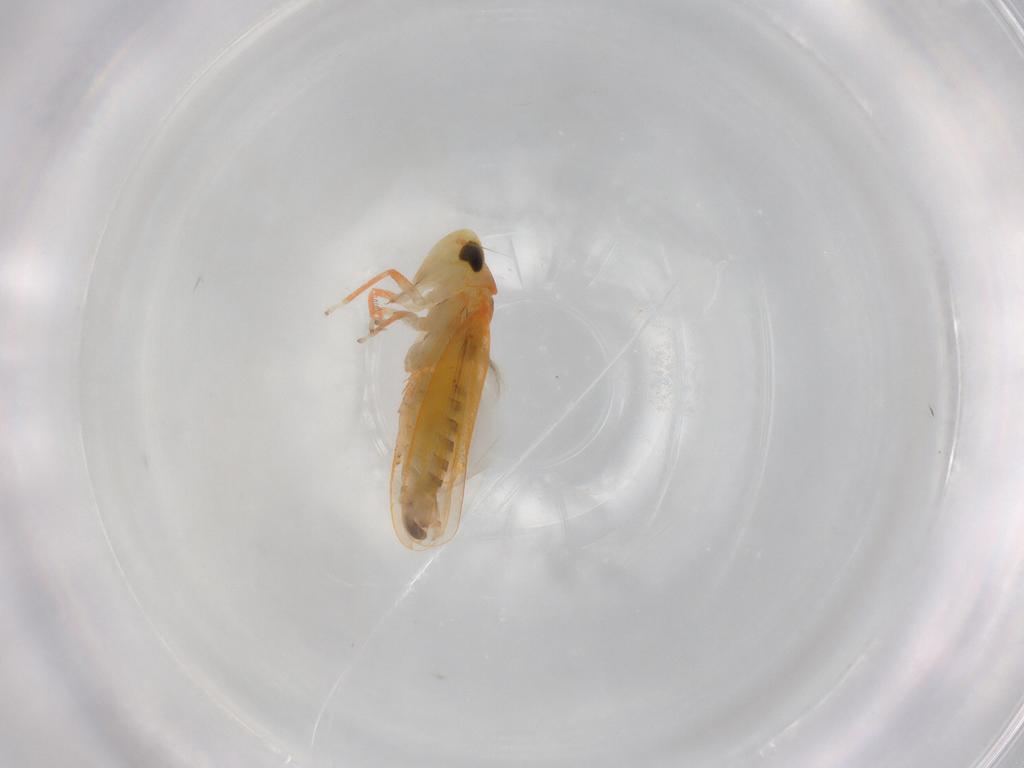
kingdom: Animalia
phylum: Arthropoda
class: Insecta
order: Hemiptera
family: Cicadellidae
